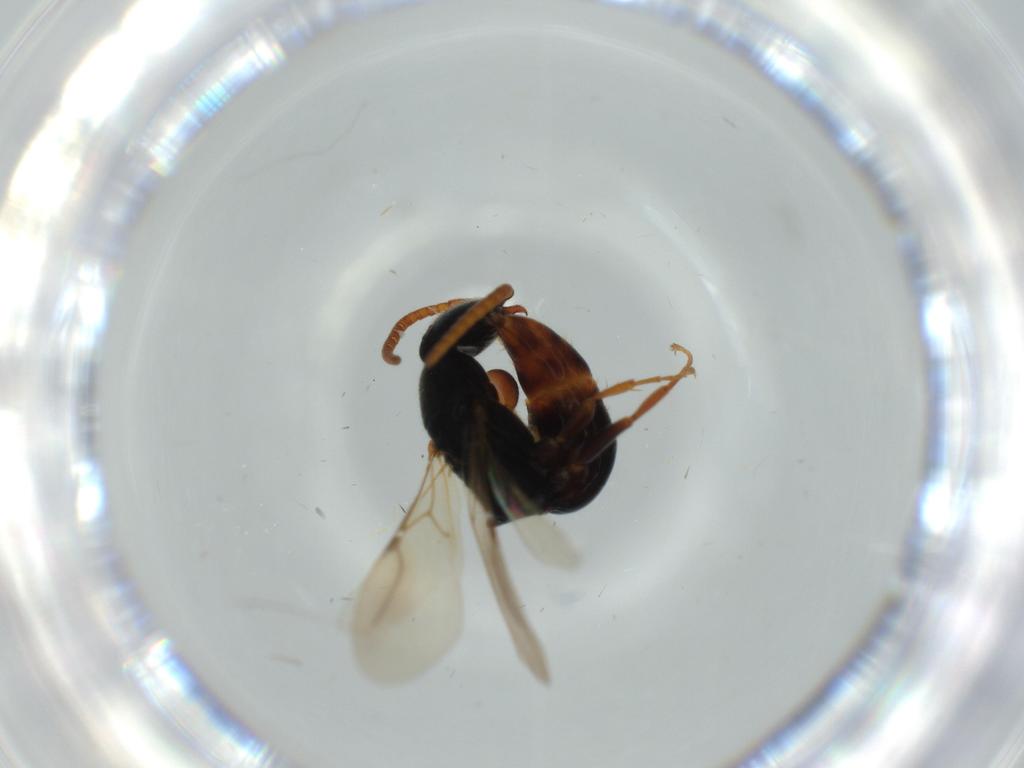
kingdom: Animalia
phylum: Arthropoda
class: Insecta
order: Hymenoptera
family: Bethylidae
